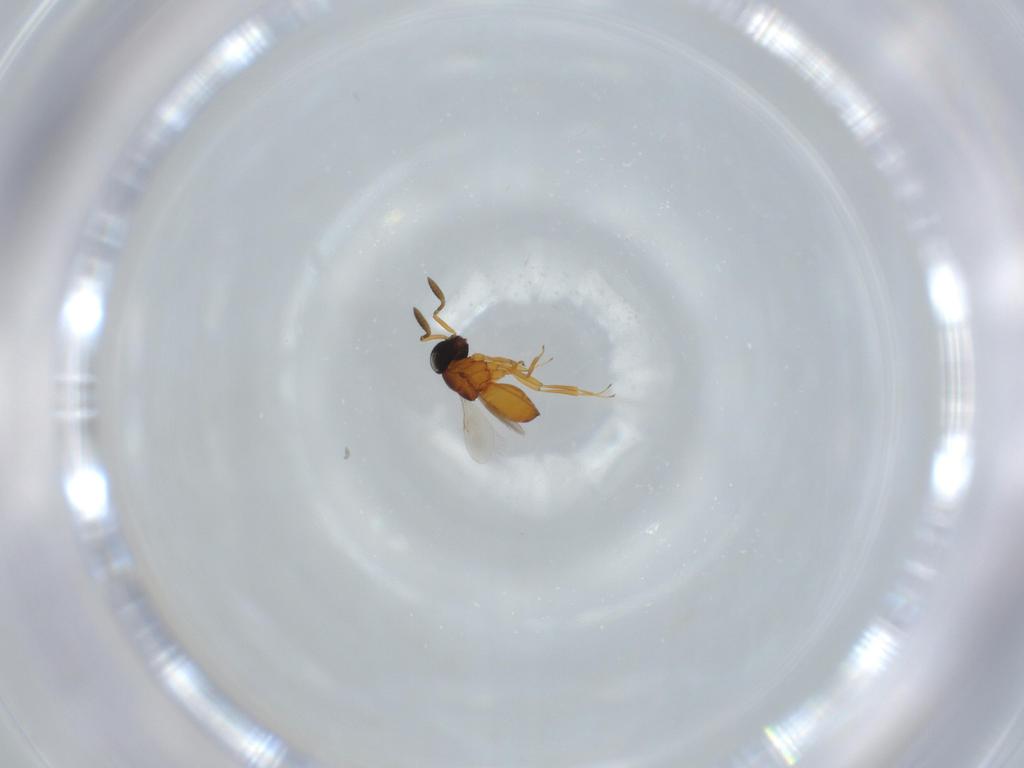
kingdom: Animalia
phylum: Arthropoda
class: Insecta
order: Hymenoptera
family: Scelionidae
